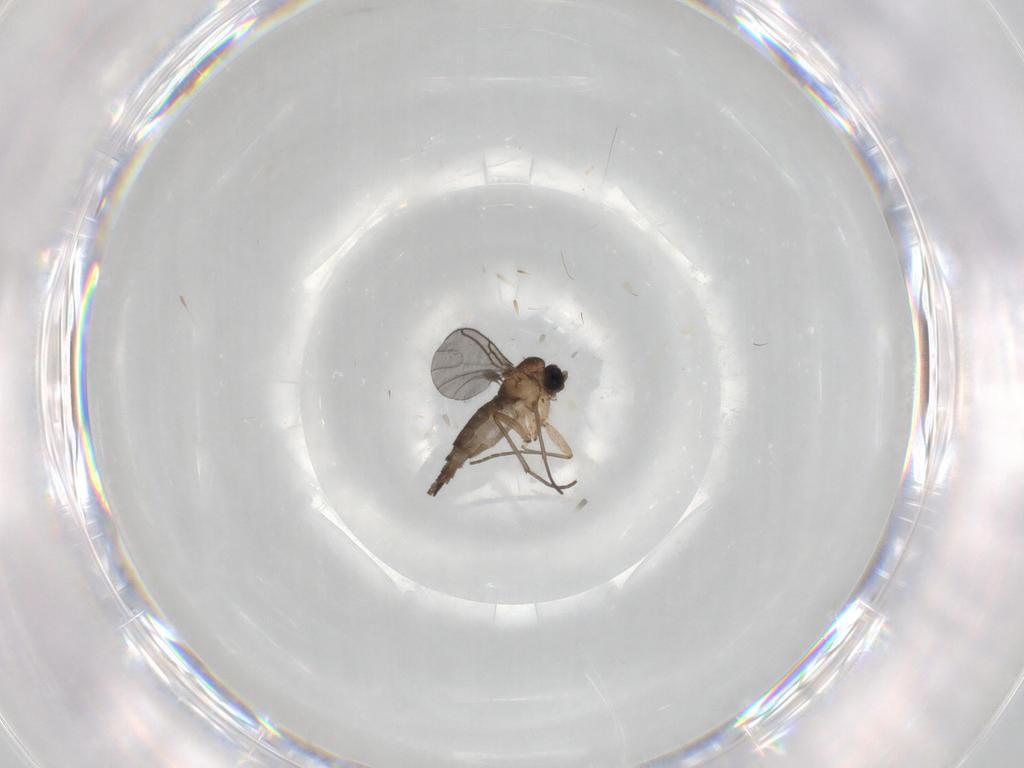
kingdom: Animalia
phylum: Arthropoda
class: Insecta
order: Diptera
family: Sciaridae
